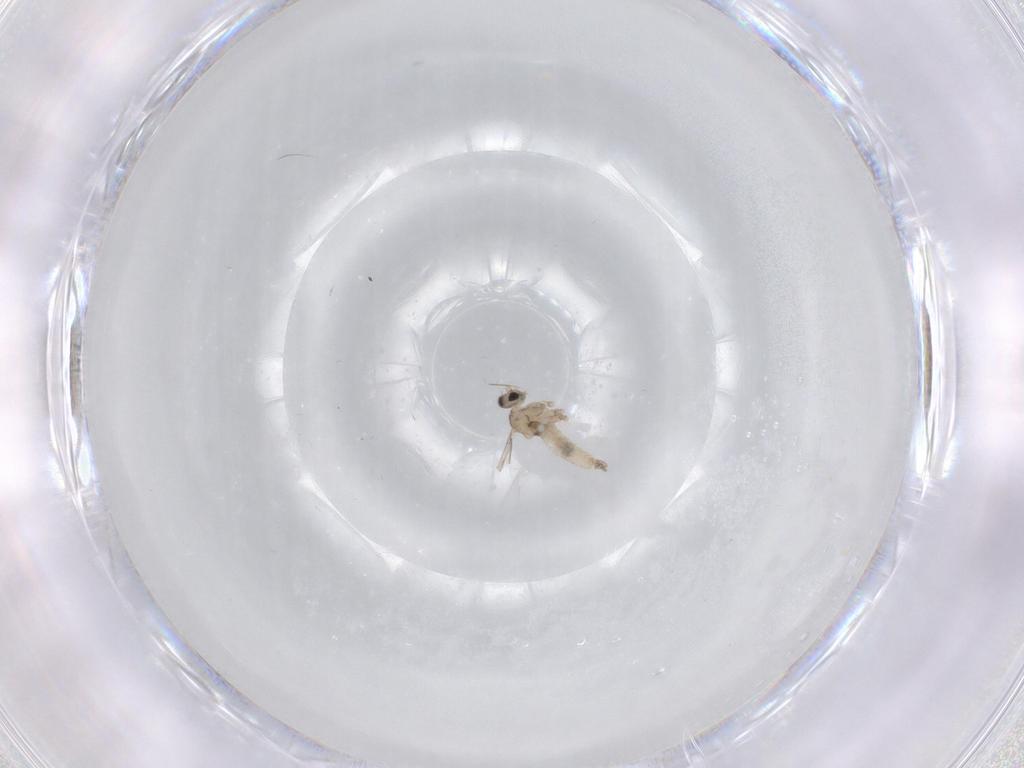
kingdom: Animalia
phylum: Arthropoda
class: Insecta
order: Diptera
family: Cecidomyiidae
